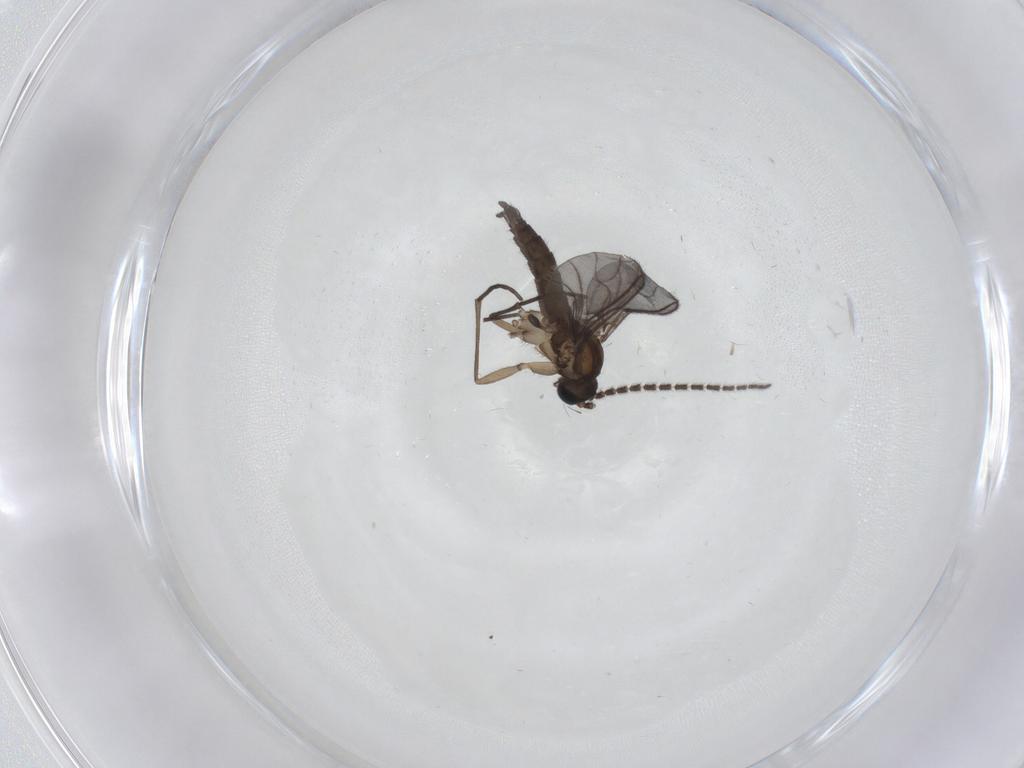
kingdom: Animalia
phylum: Arthropoda
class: Insecta
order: Diptera
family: Sciaridae
